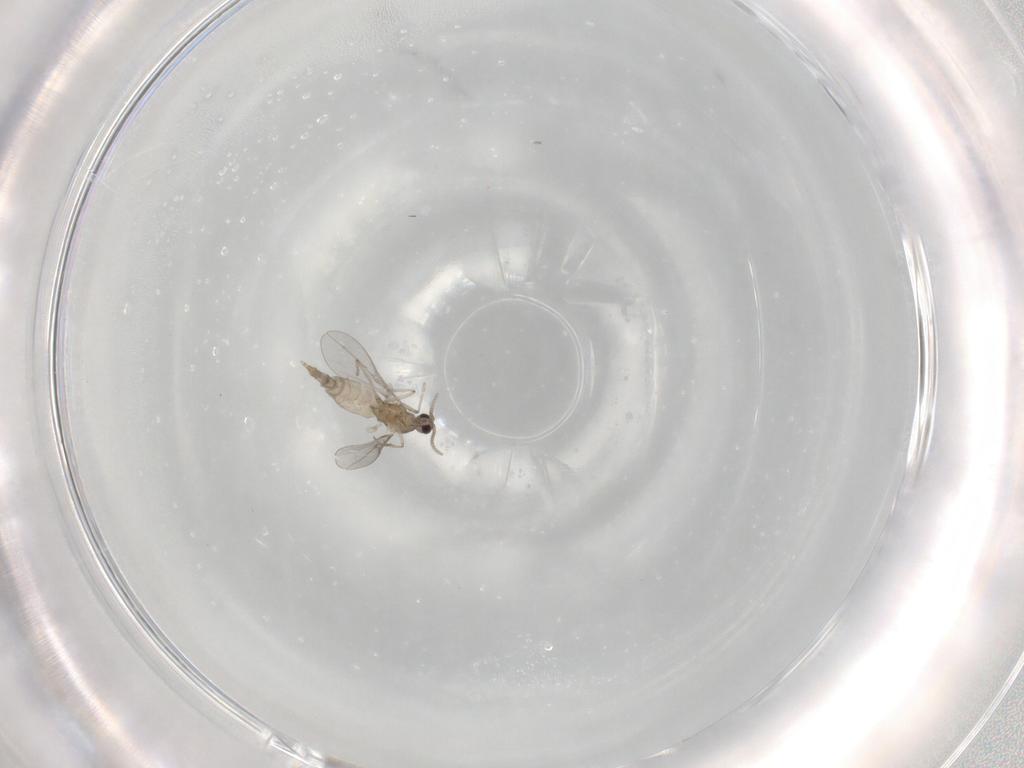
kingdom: Animalia
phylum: Arthropoda
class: Insecta
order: Diptera
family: Cecidomyiidae
